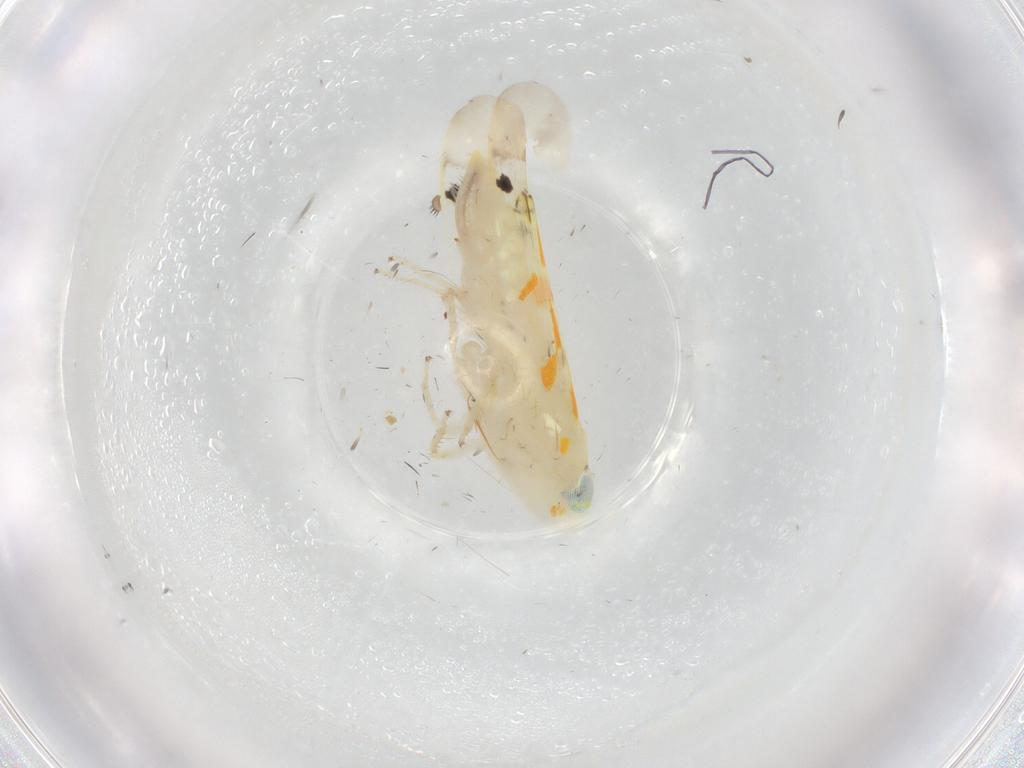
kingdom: Animalia
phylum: Arthropoda
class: Insecta
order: Hemiptera
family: Cicadellidae
